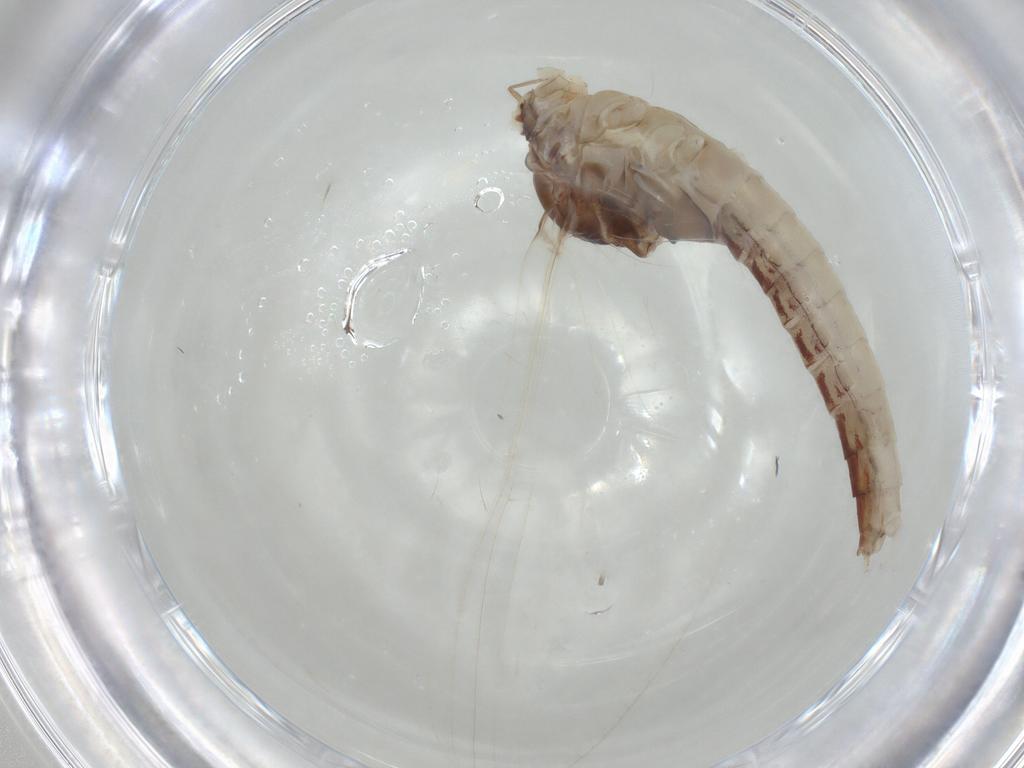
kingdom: Animalia
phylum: Arthropoda
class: Insecta
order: Ephemeroptera
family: Baetidae
